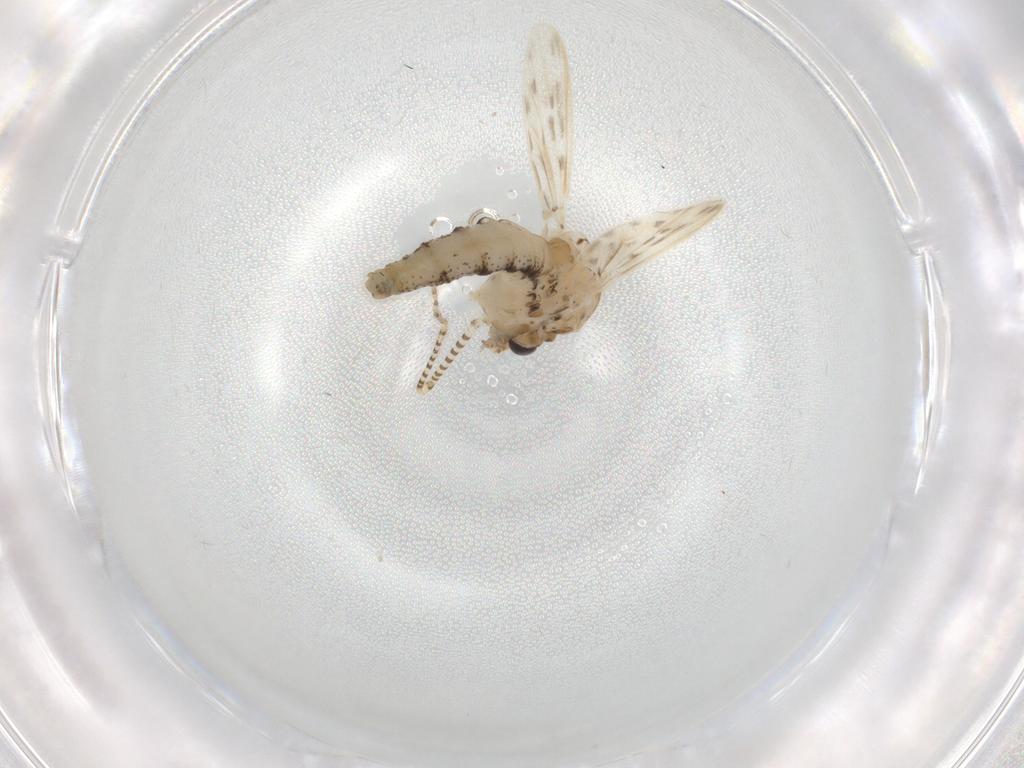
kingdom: Animalia
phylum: Arthropoda
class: Insecta
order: Diptera
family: Chaoboridae
